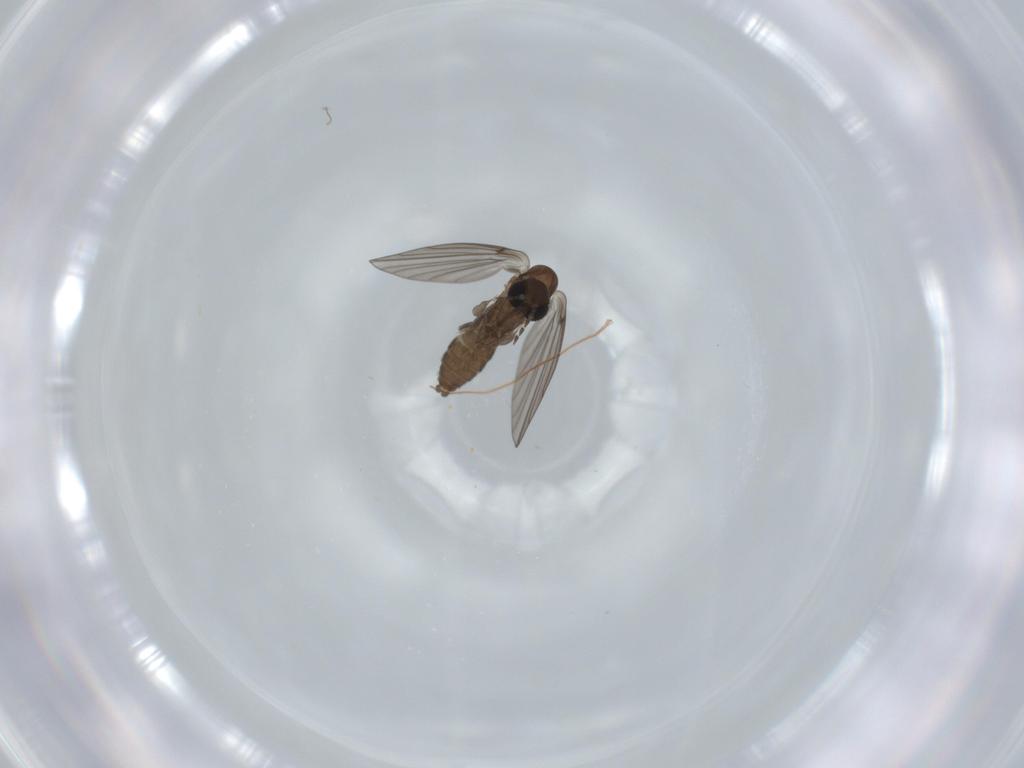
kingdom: Animalia
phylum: Arthropoda
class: Insecta
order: Diptera
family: Psychodidae
